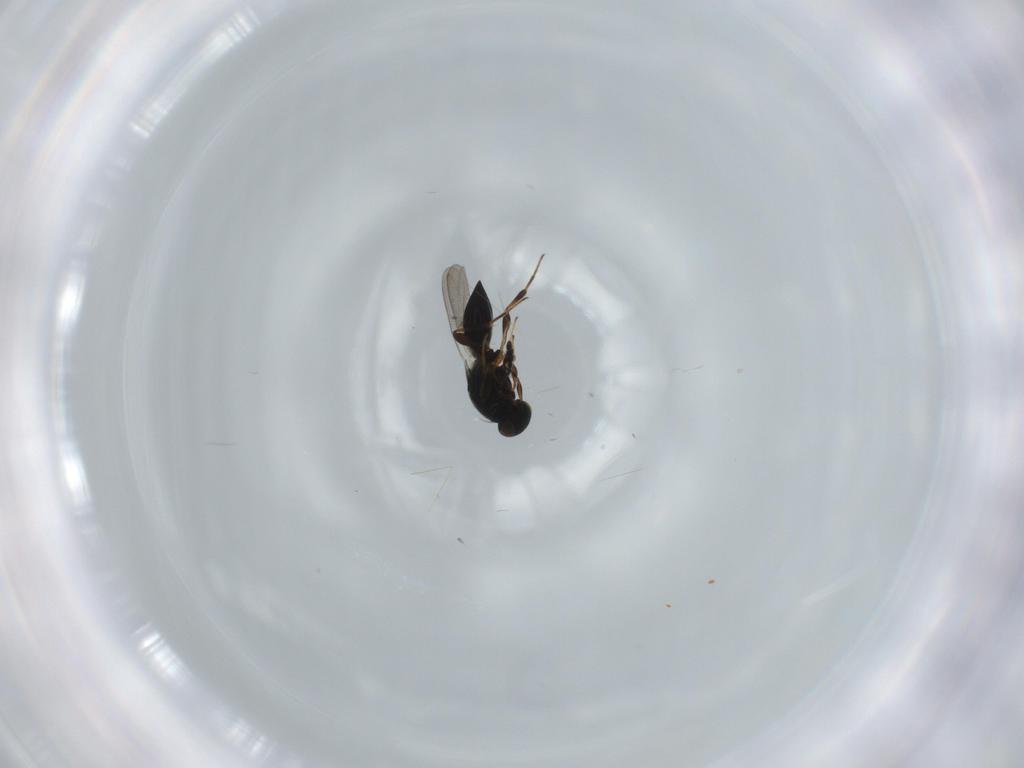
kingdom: Animalia
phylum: Arthropoda
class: Insecta
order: Hymenoptera
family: Platygastridae
